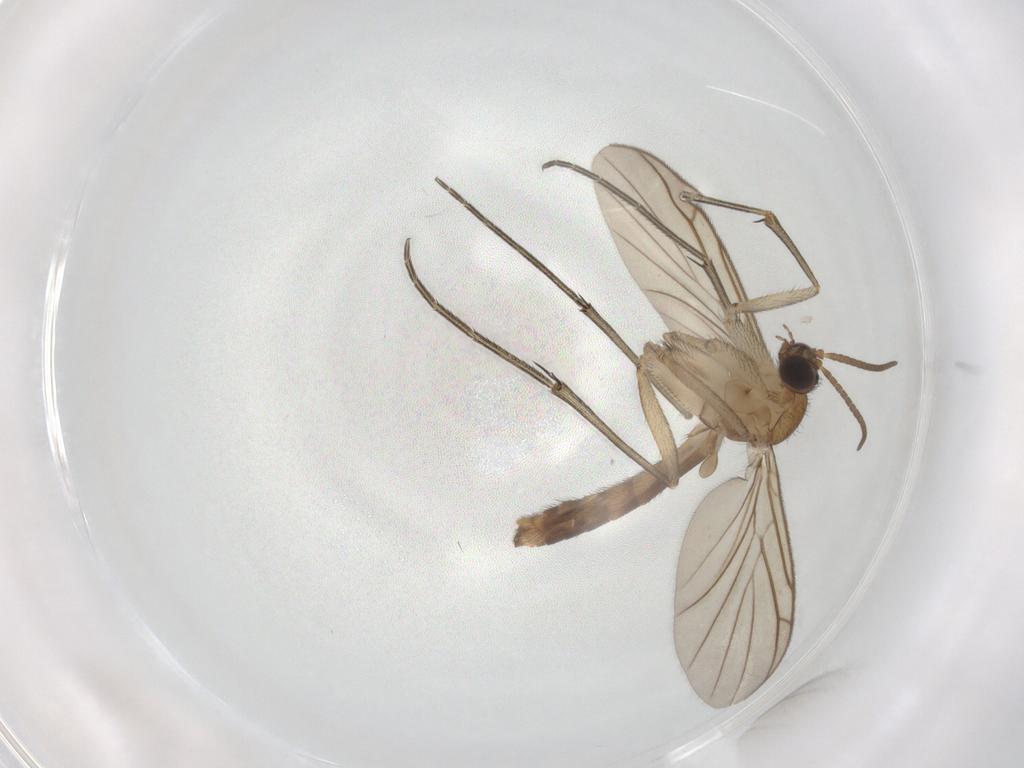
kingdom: Animalia
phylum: Arthropoda
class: Insecta
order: Diptera
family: Keroplatidae
